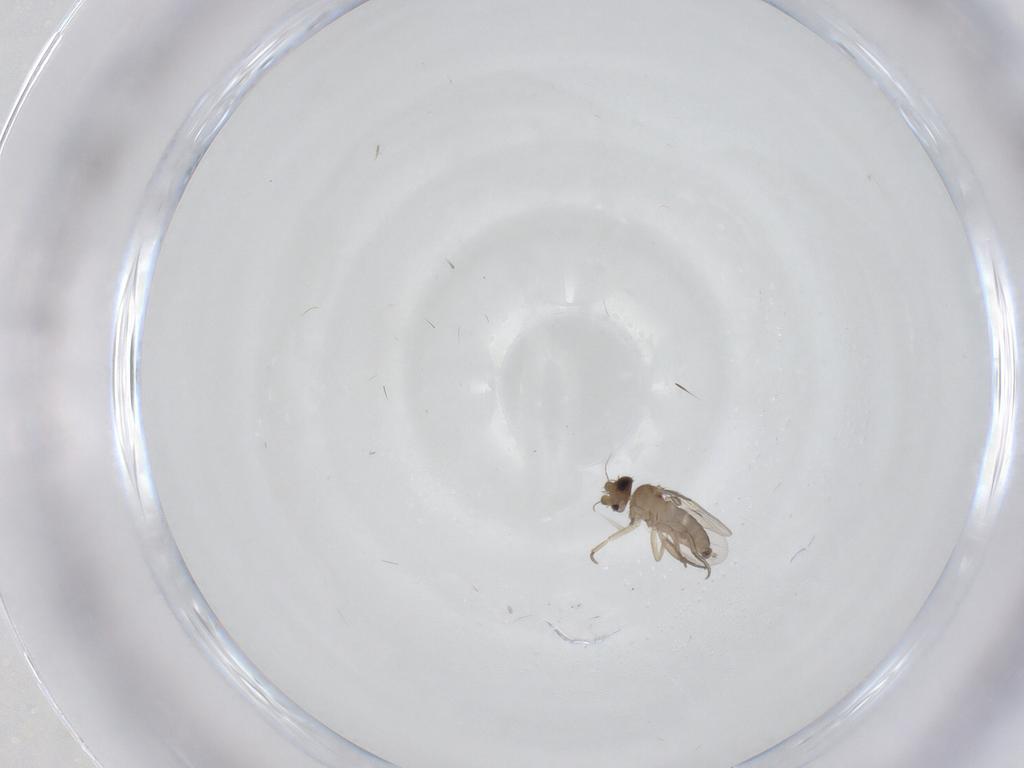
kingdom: Animalia
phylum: Arthropoda
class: Insecta
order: Diptera
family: Phoridae
